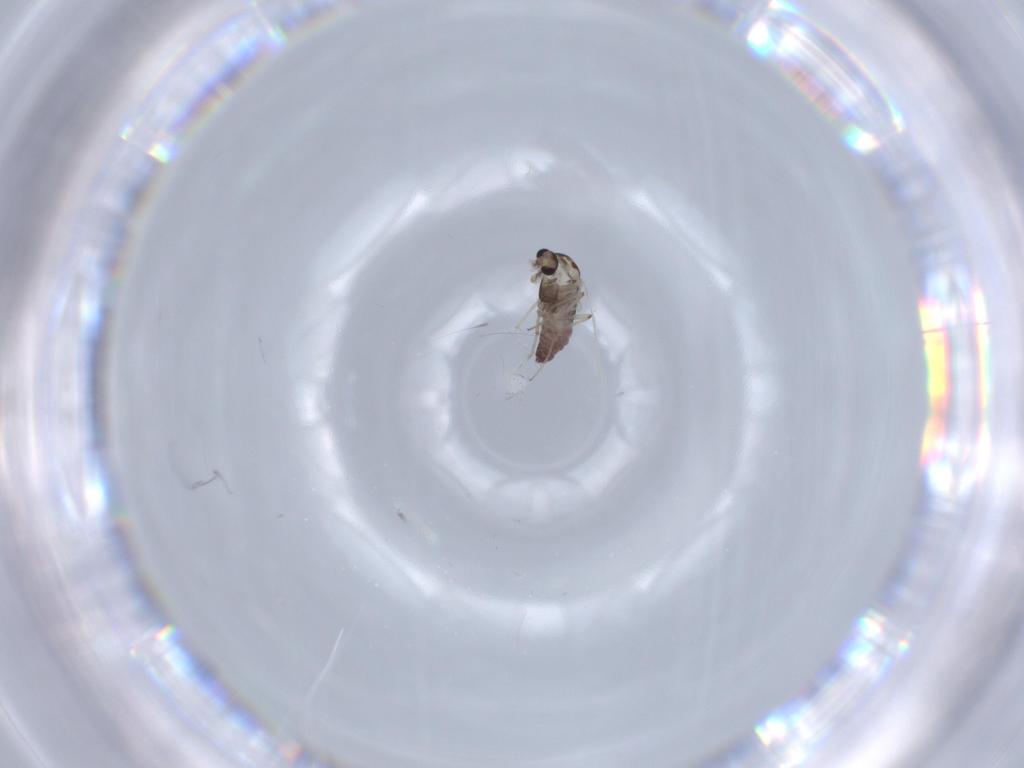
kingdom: Animalia
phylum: Arthropoda
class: Insecta
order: Diptera
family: Chironomidae
